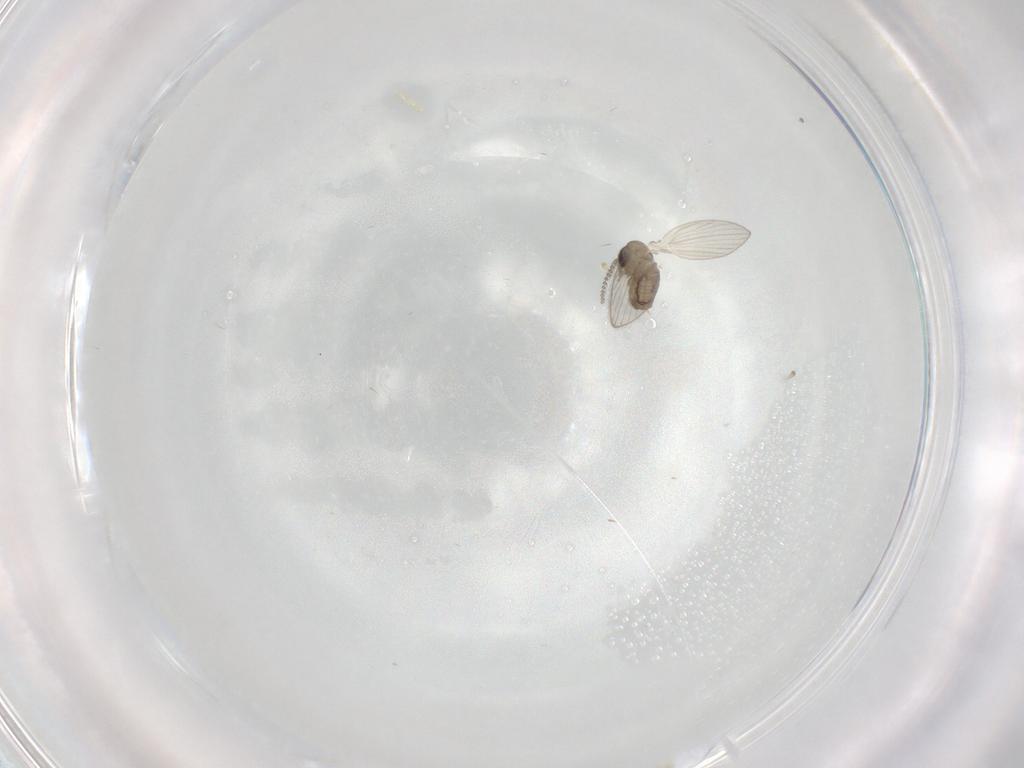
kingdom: Animalia
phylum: Arthropoda
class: Insecta
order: Diptera
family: Psychodidae
